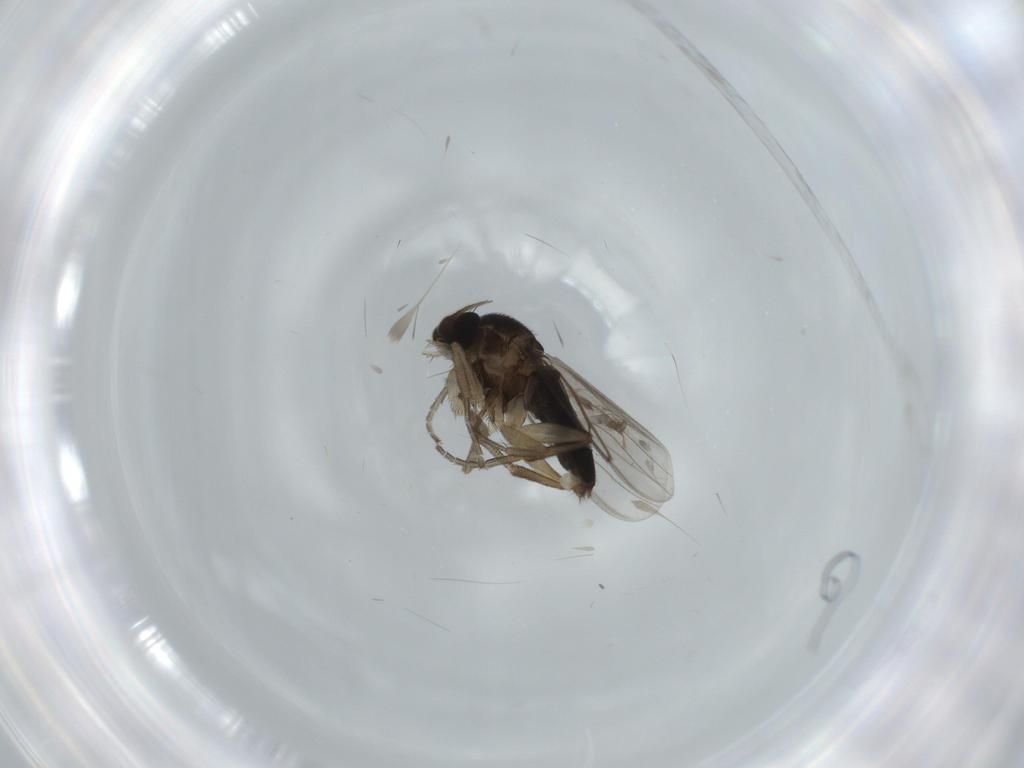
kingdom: Animalia
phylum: Arthropoda
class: Insecta
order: Diptera
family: Hybotidae
